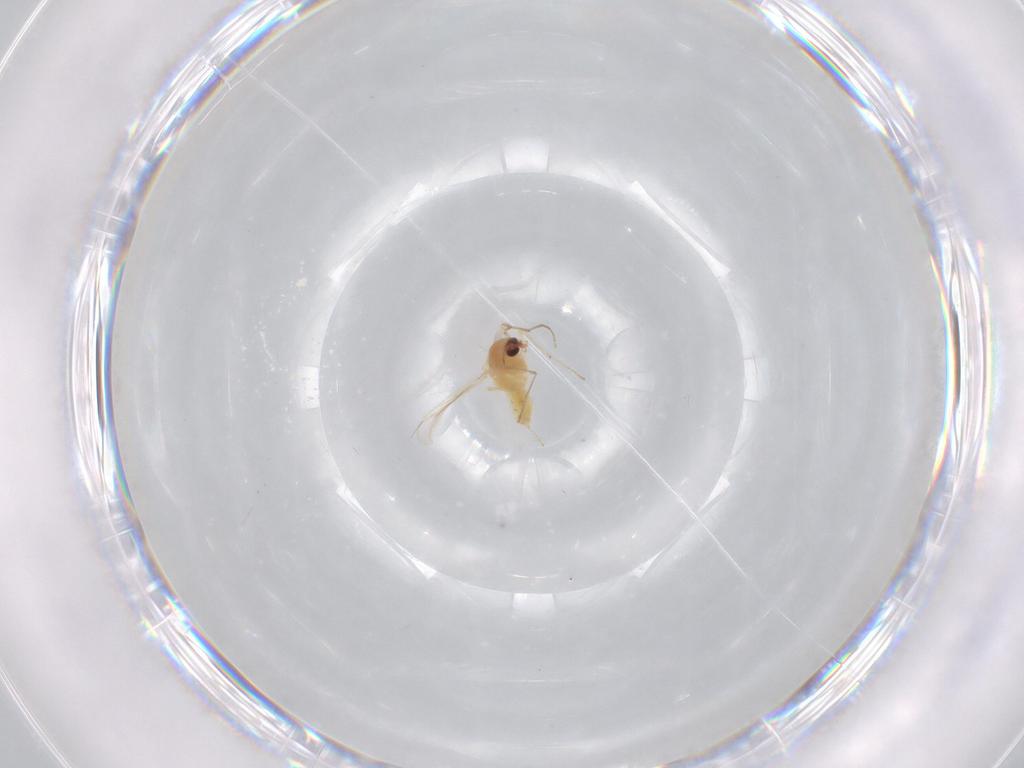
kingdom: Animalia
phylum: Arthropoda
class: Insecta
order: Diptera
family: Chironomidae
